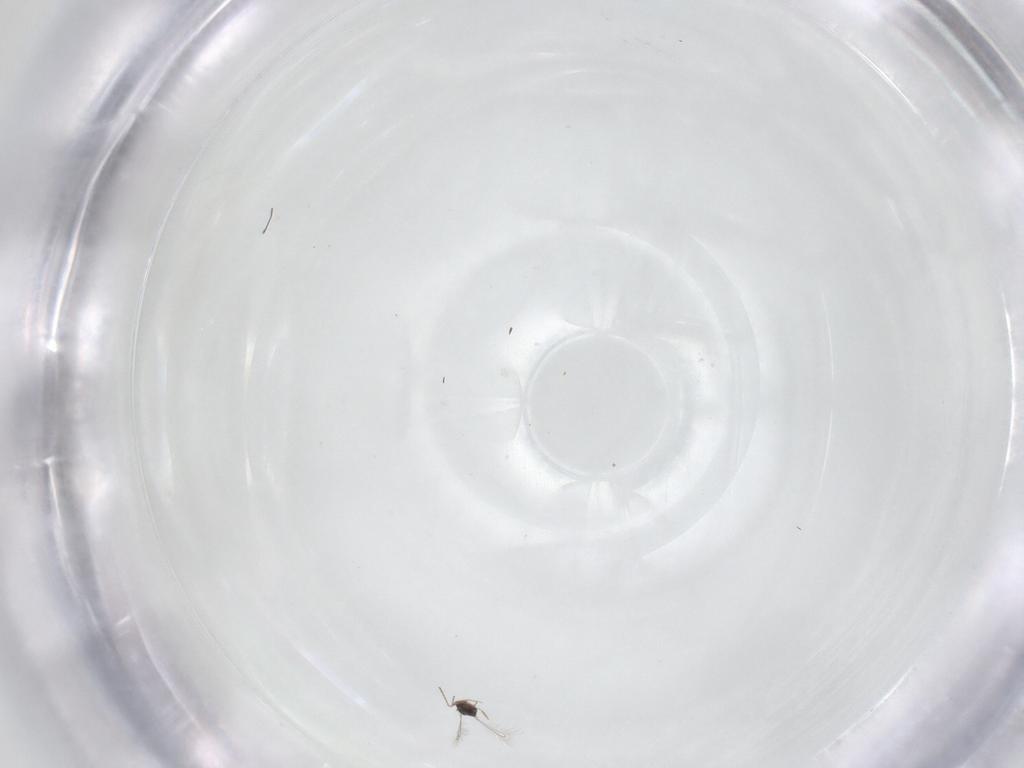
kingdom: Animalia
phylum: Arthropoda
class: Insecta
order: Hymenoptera
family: Mymaridae
